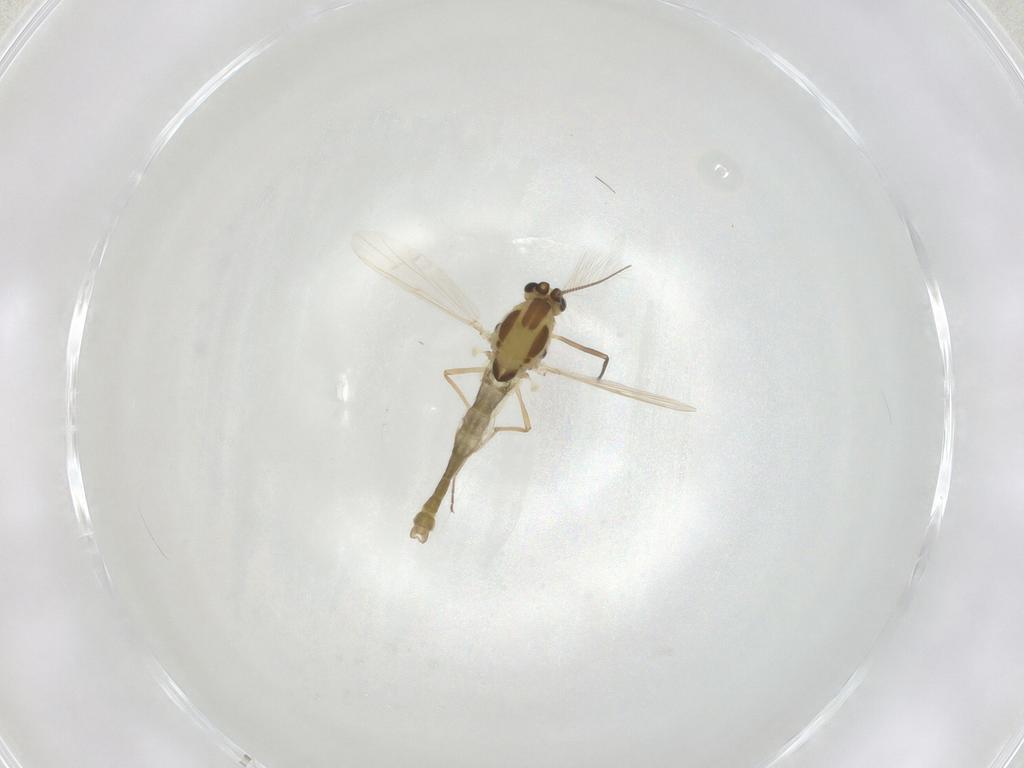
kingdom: Animalia
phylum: Arthropoda
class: Insecta
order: Diptera
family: Chironomidae
